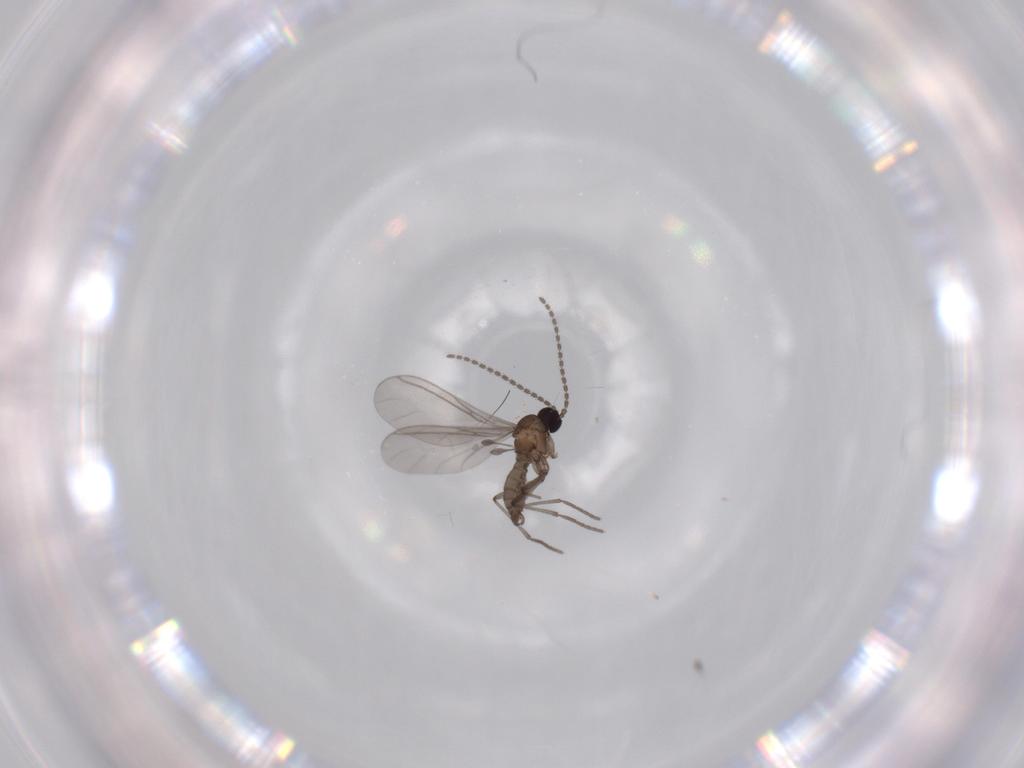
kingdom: Animalia
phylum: Arthropoda
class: Insecta
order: Diptera
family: Sciaridae
